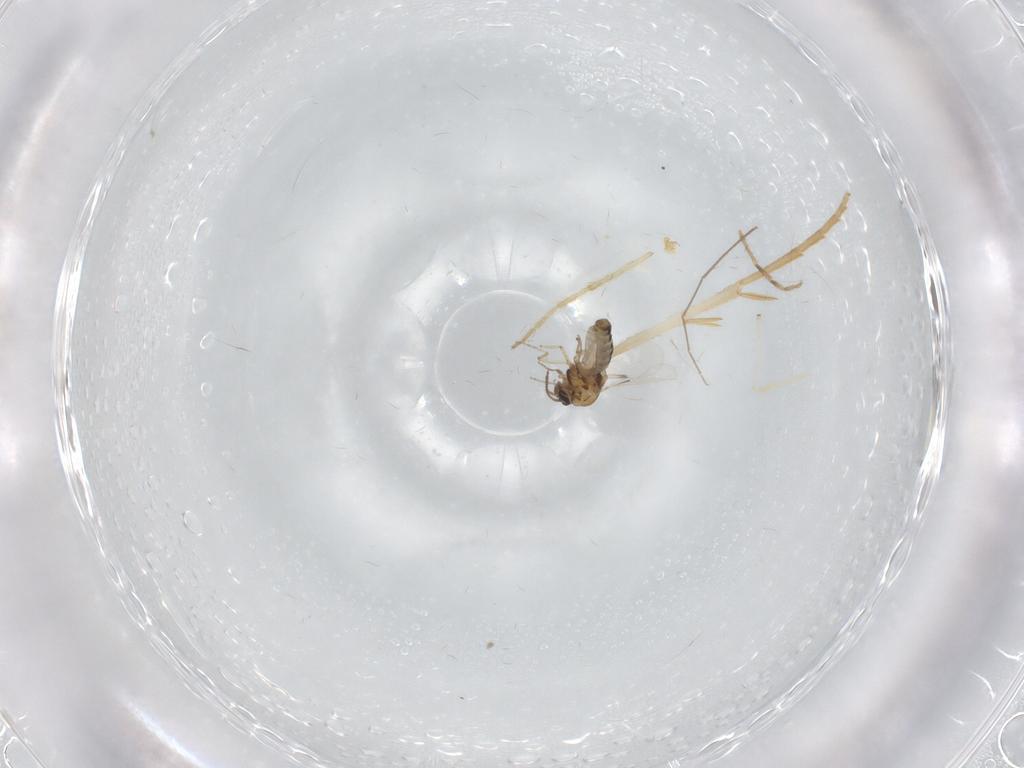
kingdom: Animalia
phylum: Arthropoda
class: Insecta
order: Diptera
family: Chironomidae
